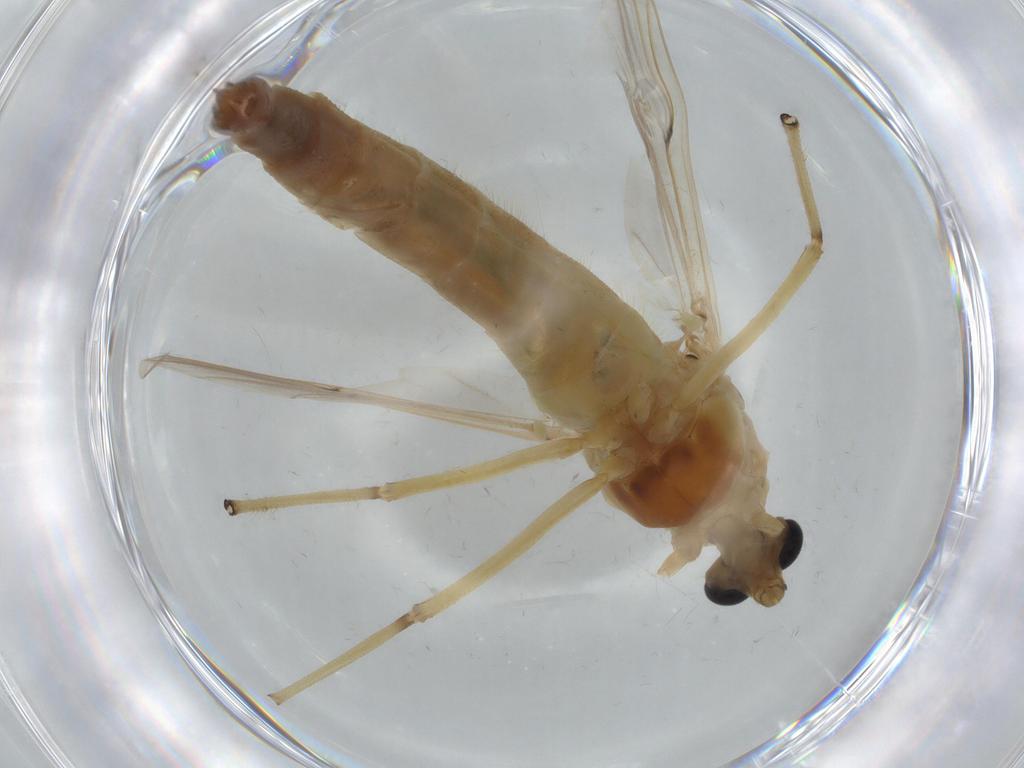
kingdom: Animalia
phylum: Arthropoda
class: Insecta
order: Diptera
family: Chironomidae
